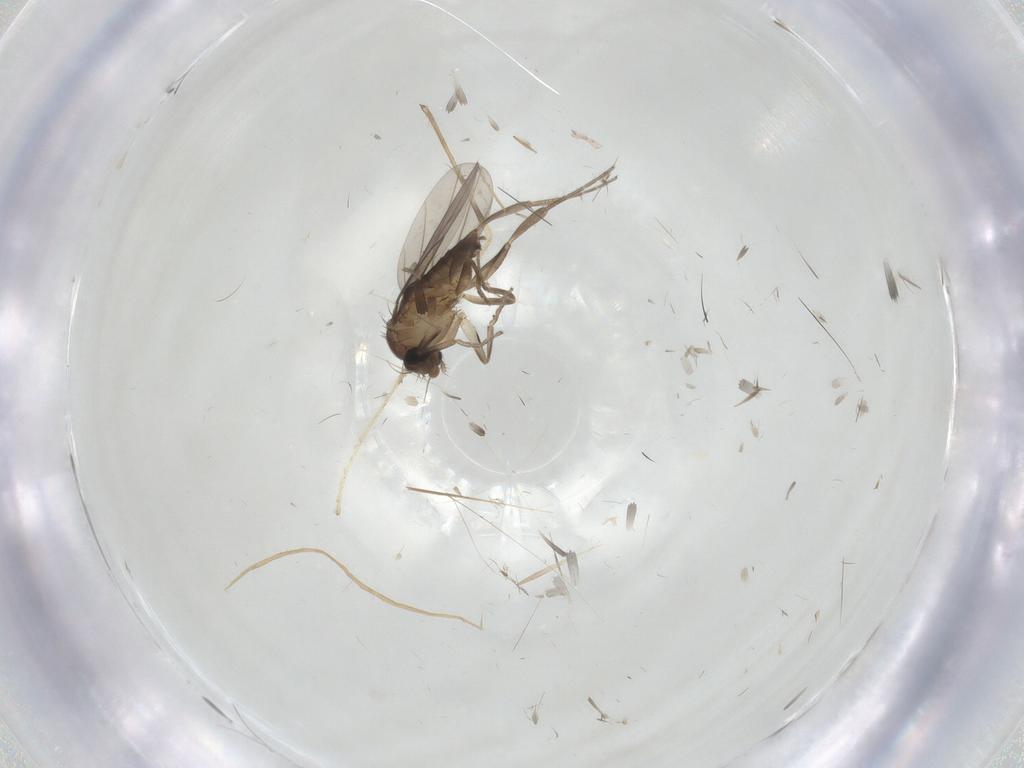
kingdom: Animalia
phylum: Arthropoda
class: Insecta
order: Diptera
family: Limoniidae
